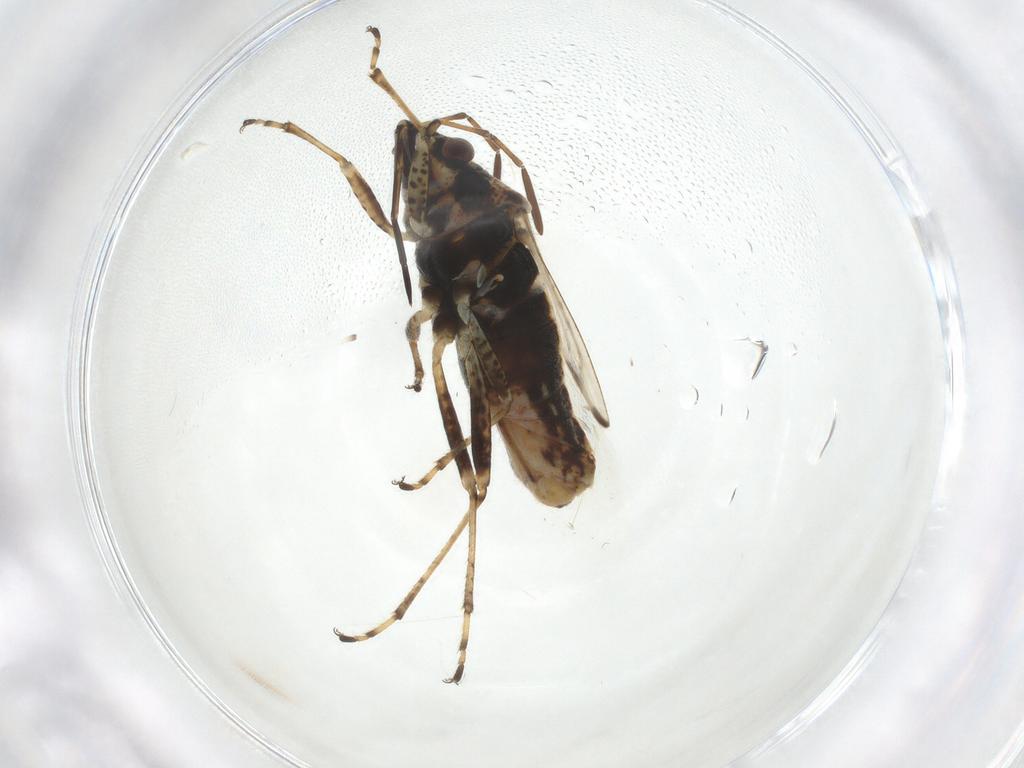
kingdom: Animalia
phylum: Arthropoda
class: Insecta
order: Hemiptera
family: Lygaeidae
